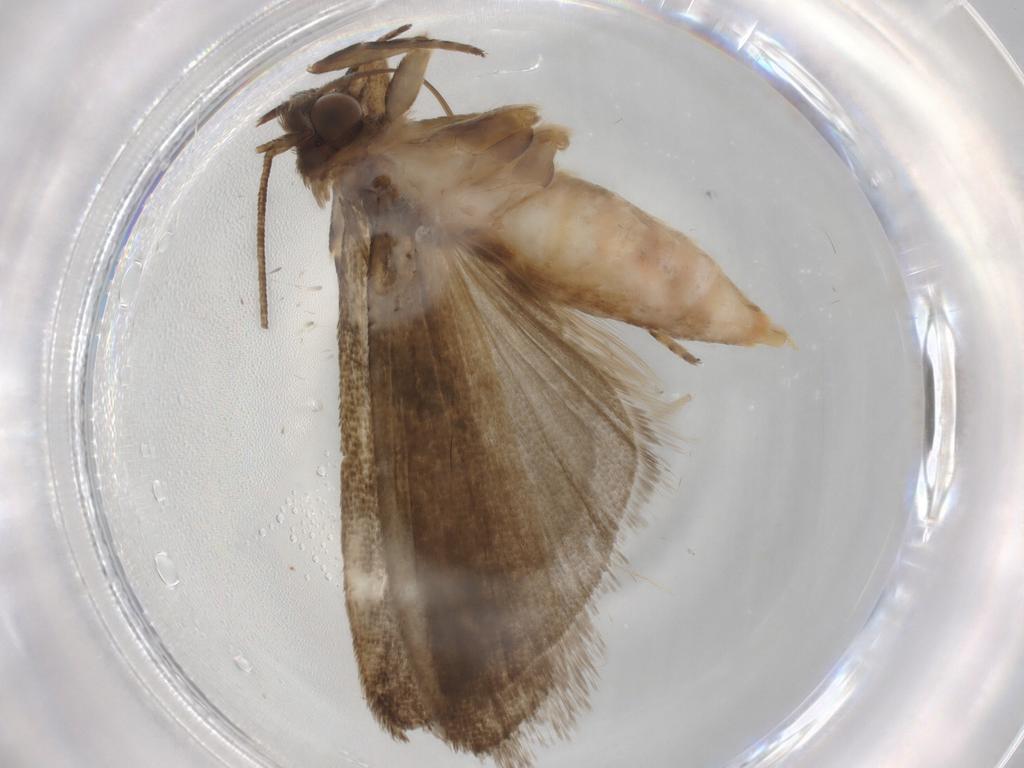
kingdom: Animalia
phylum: Arthropoda
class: Insecta
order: Lepidoptera
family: Noctuidae
